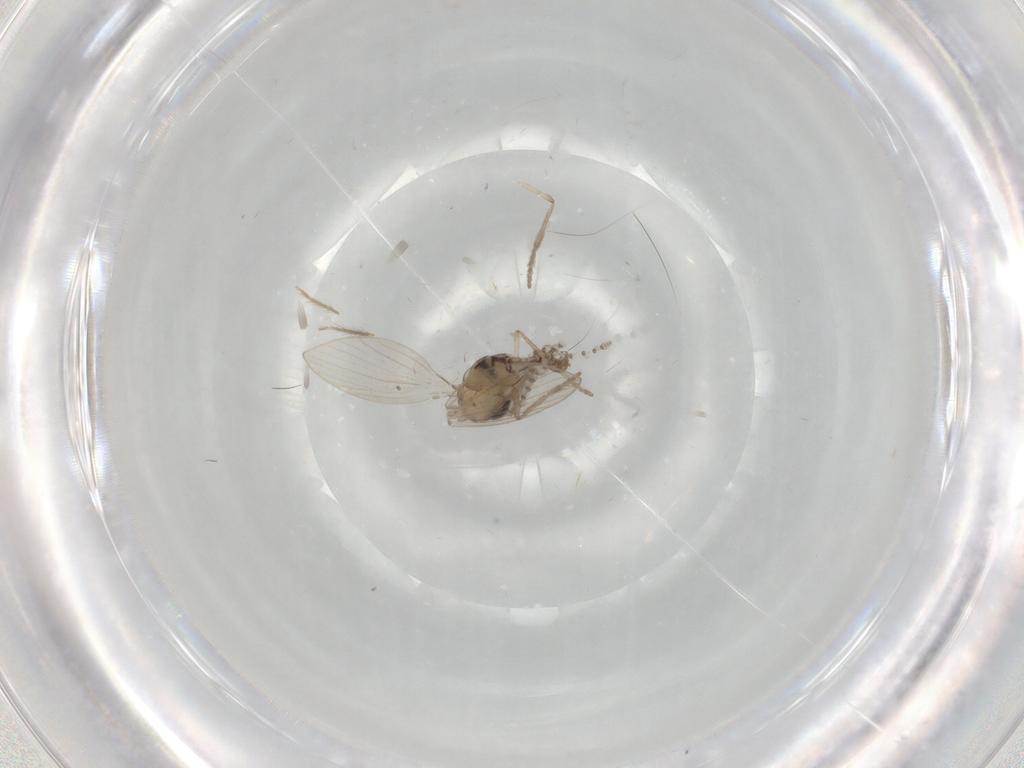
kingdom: Animalia
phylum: Arthropoda
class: Insecta
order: Diptera
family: Psychodidae
